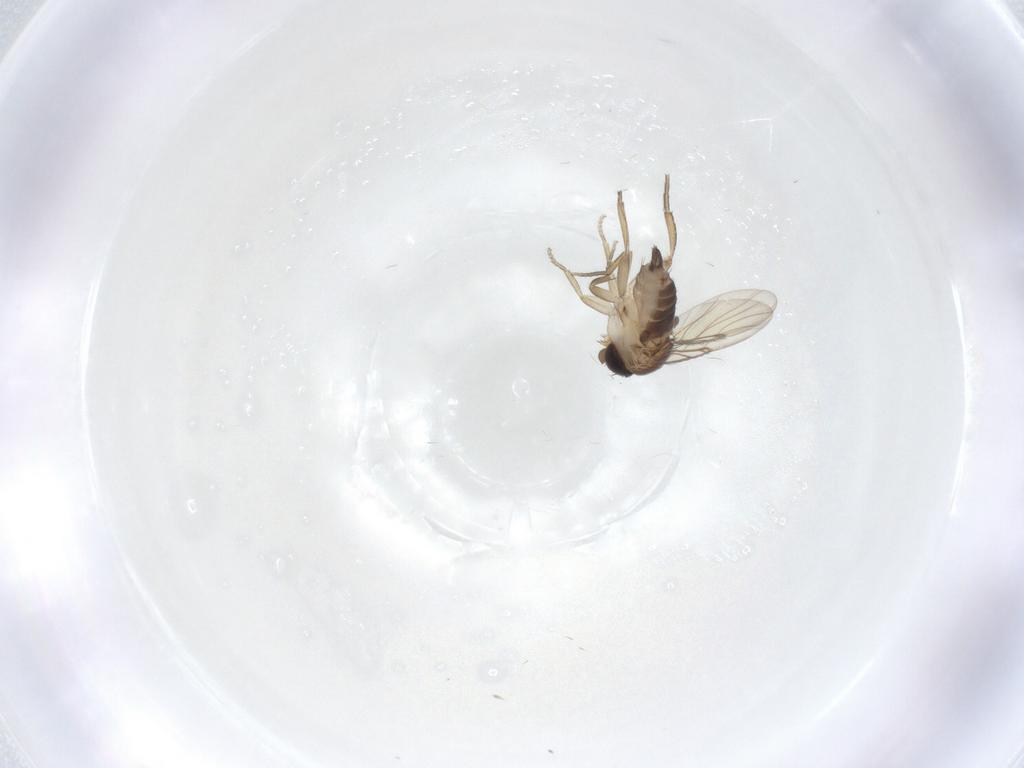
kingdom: Animalia
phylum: Arthropoda
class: Insecta
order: Diptera
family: Phoridae
